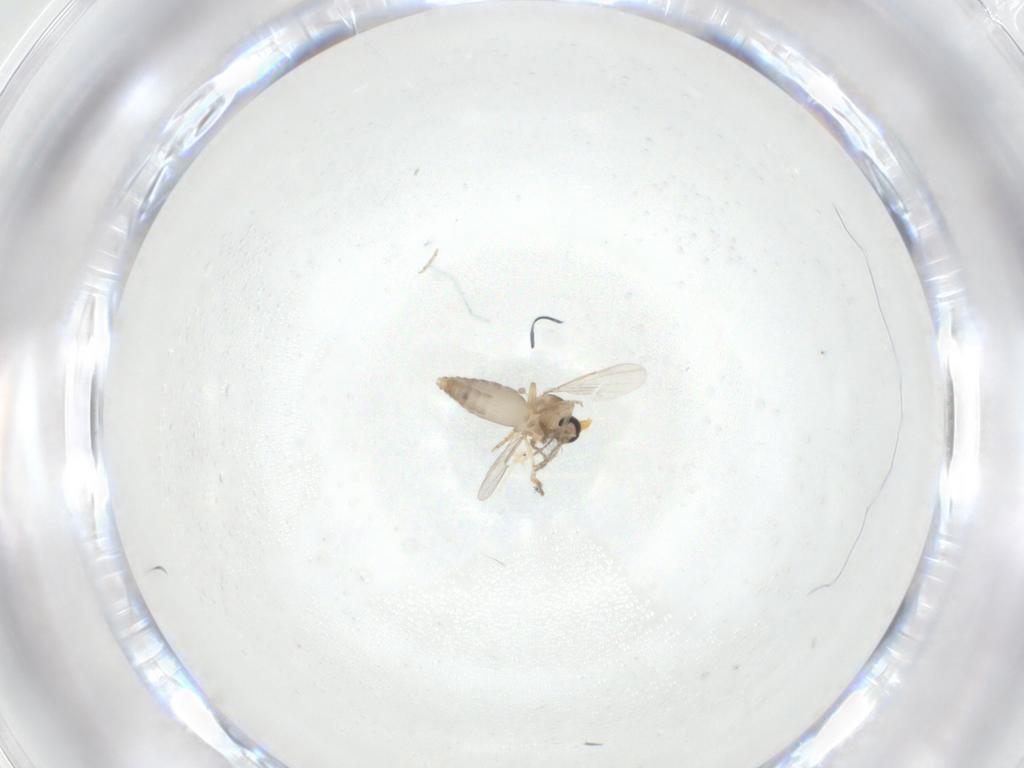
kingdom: Animalia
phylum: Arthropoda
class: Insecta
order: Diptera
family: Ceratopogonidae
